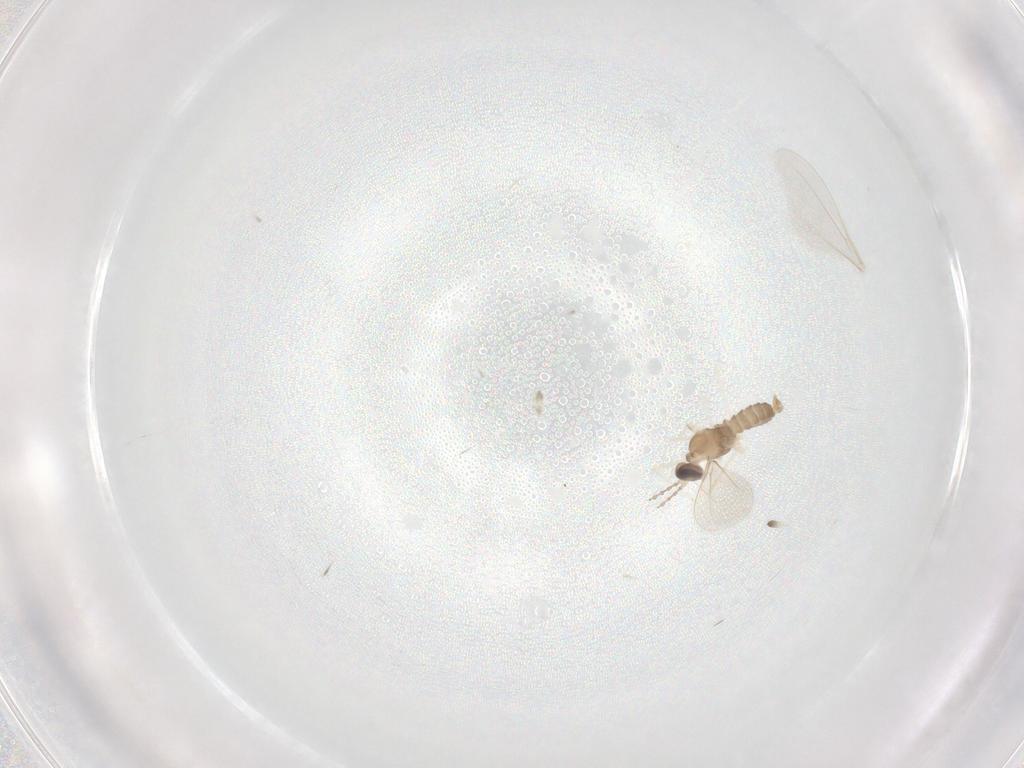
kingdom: Animalia
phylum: Arthropoda
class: Insecta
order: Diptera
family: Cecidomyiidae
